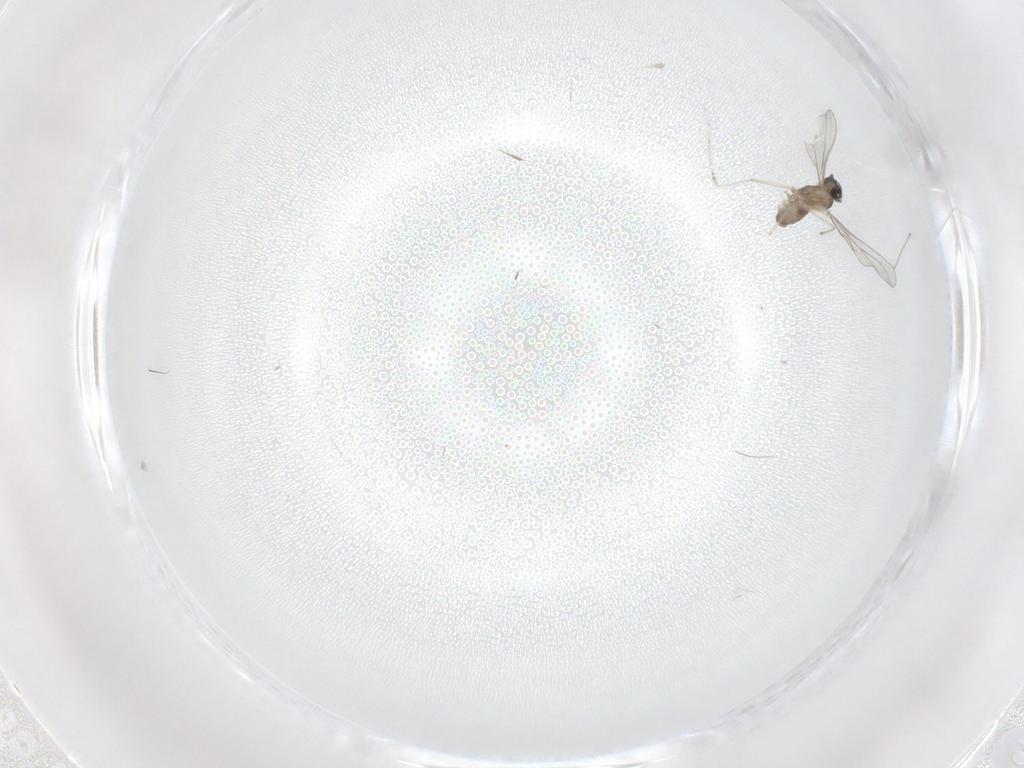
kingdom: Animalia
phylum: Arthropoda
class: Insecta
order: Diptera
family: Cecidomyiidae
